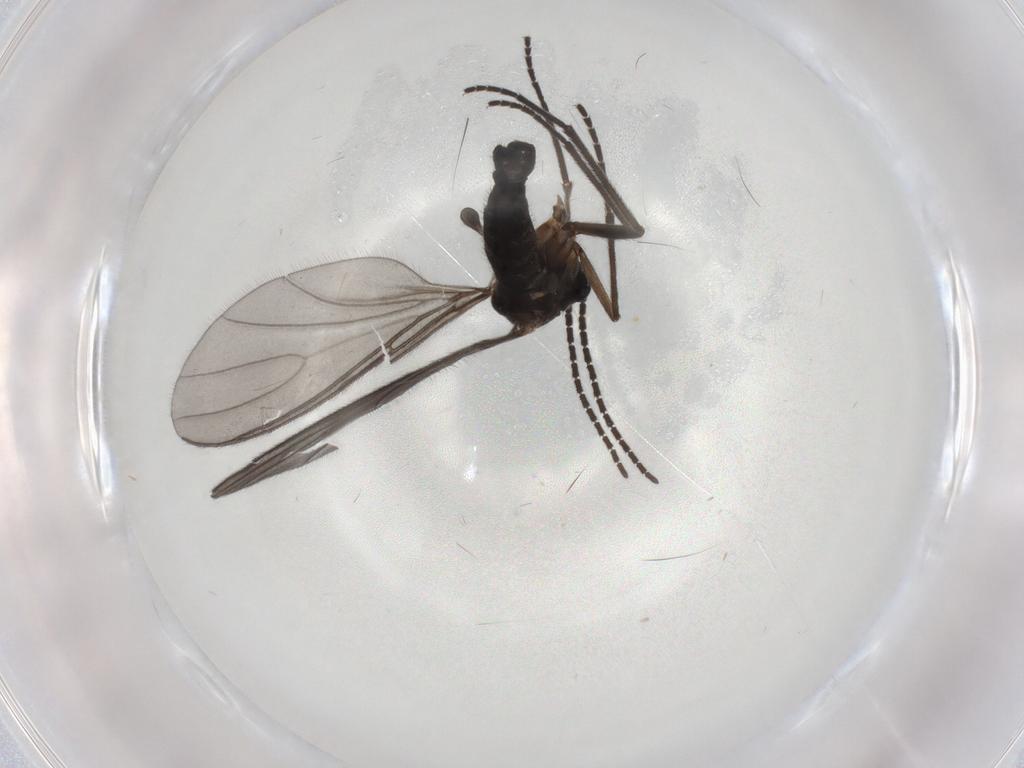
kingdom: Animalia
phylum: Arthropoda
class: Insecta
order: Diptera
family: Sciaridae
